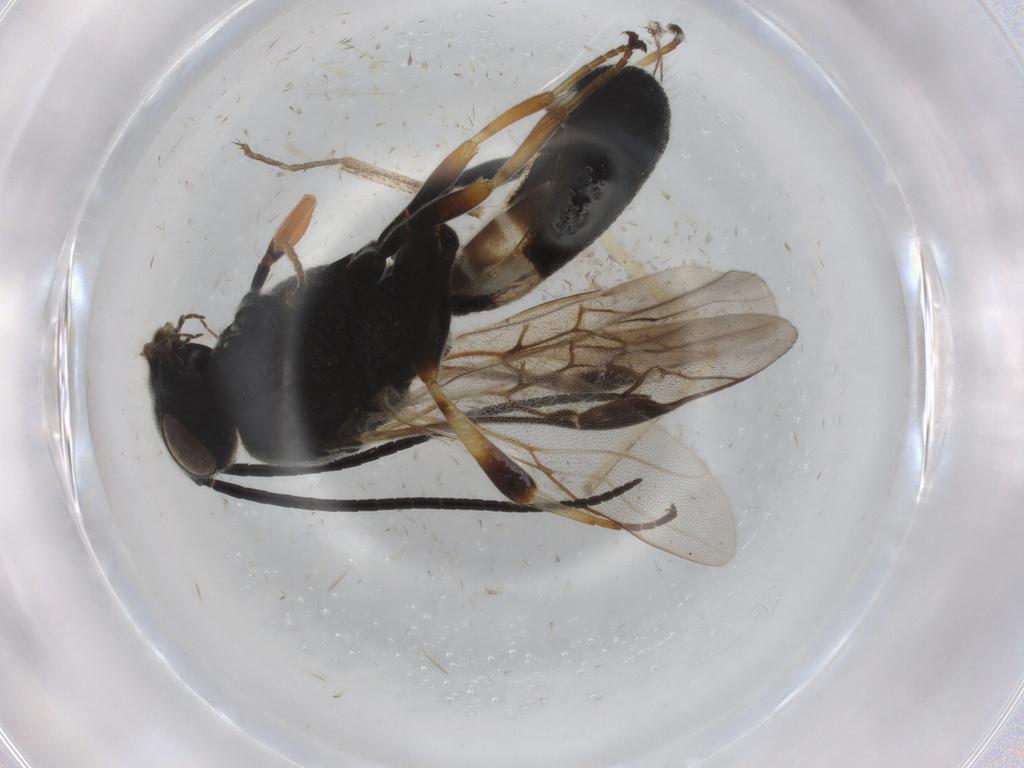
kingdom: Animalia
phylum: Arthropoda
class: Insecta
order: Hymenoptera
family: Braconidae
